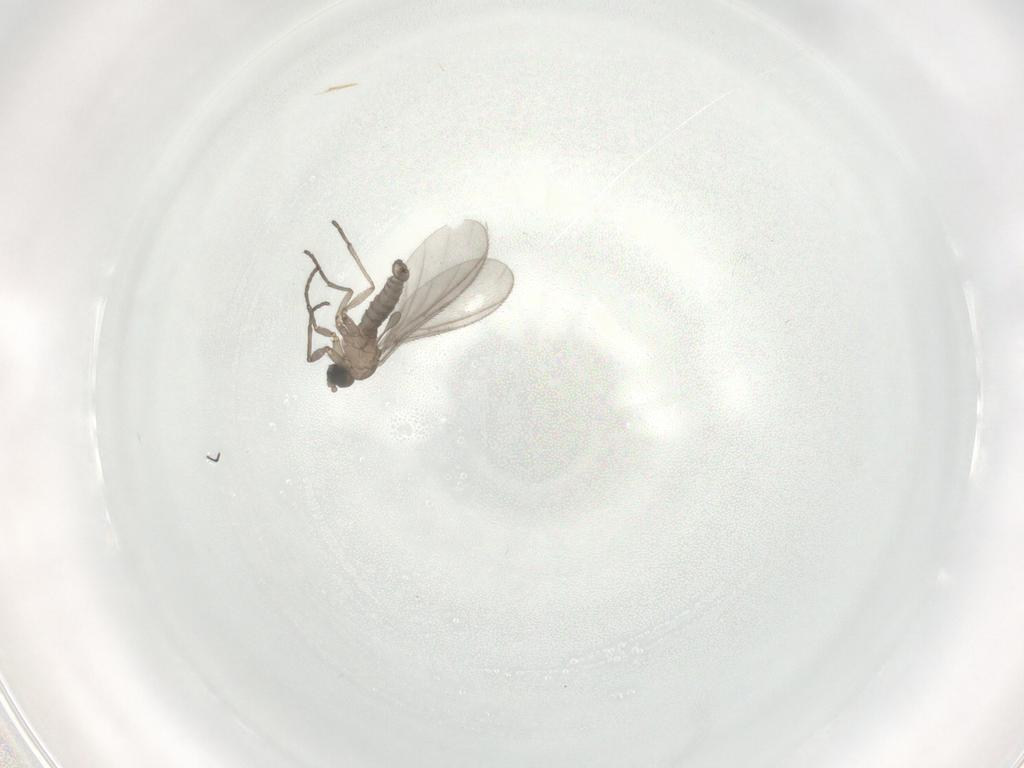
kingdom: Animalia
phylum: Arthropoda
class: Insecta
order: Diptera
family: Sciaridae
